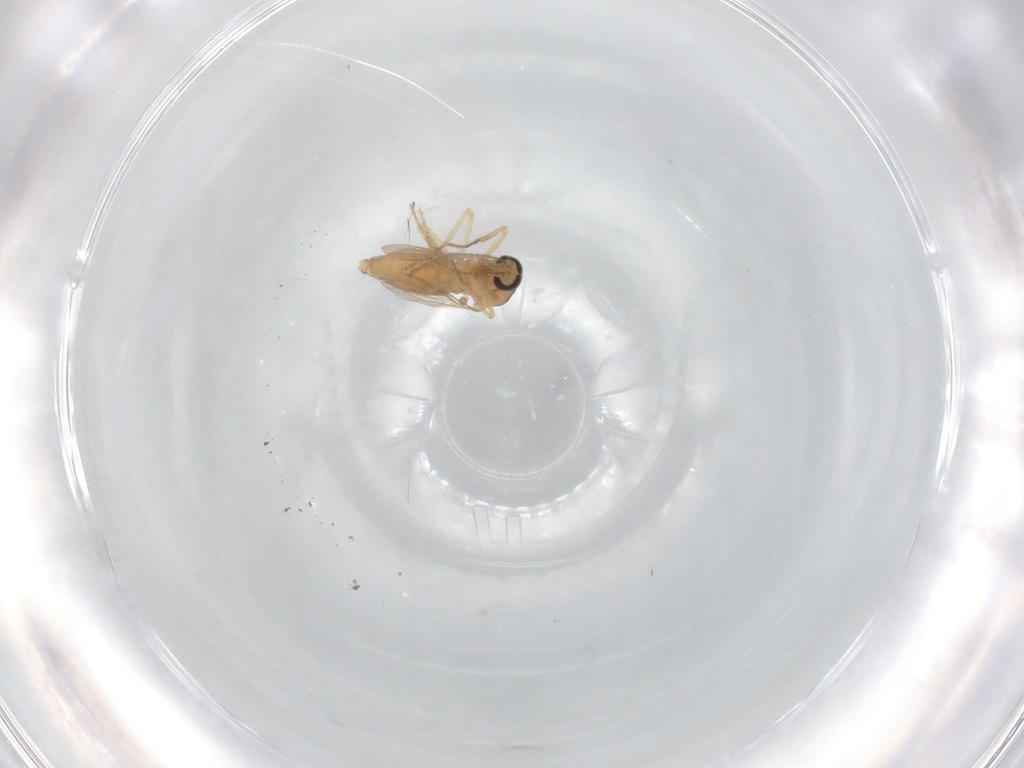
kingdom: Animalia
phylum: Arthropoda
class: Insecta
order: Diptera
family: Ceratopogonidae
